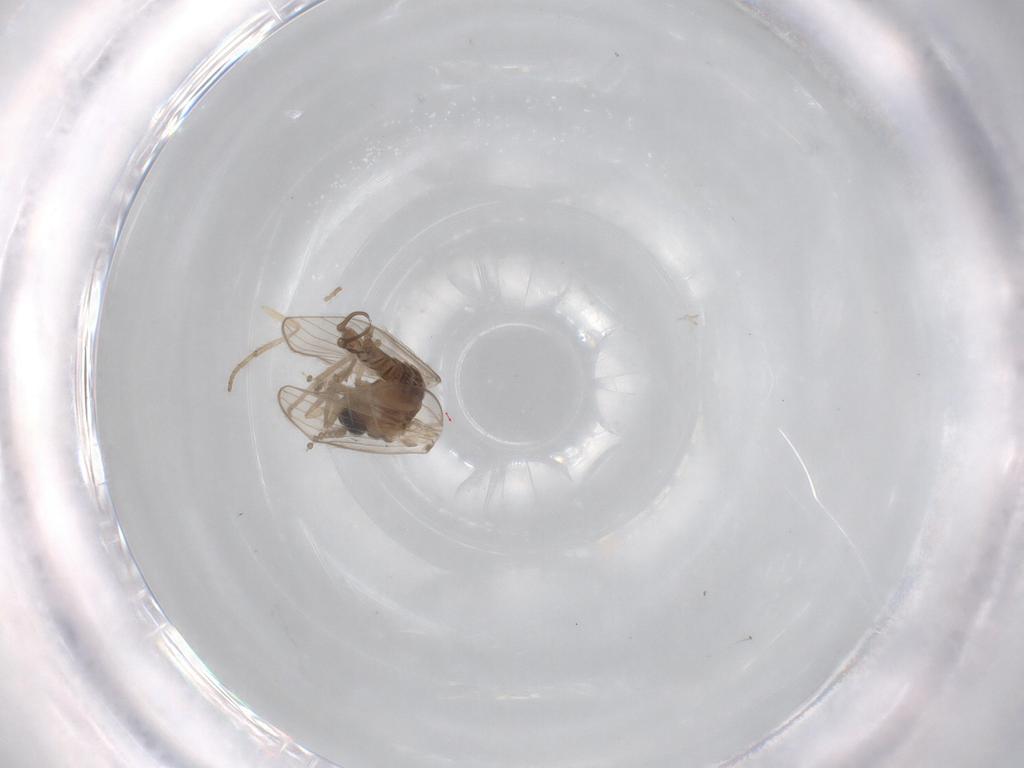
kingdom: Animalia
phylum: Arthropoda
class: Insecta
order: Diptera
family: Psychodidae
